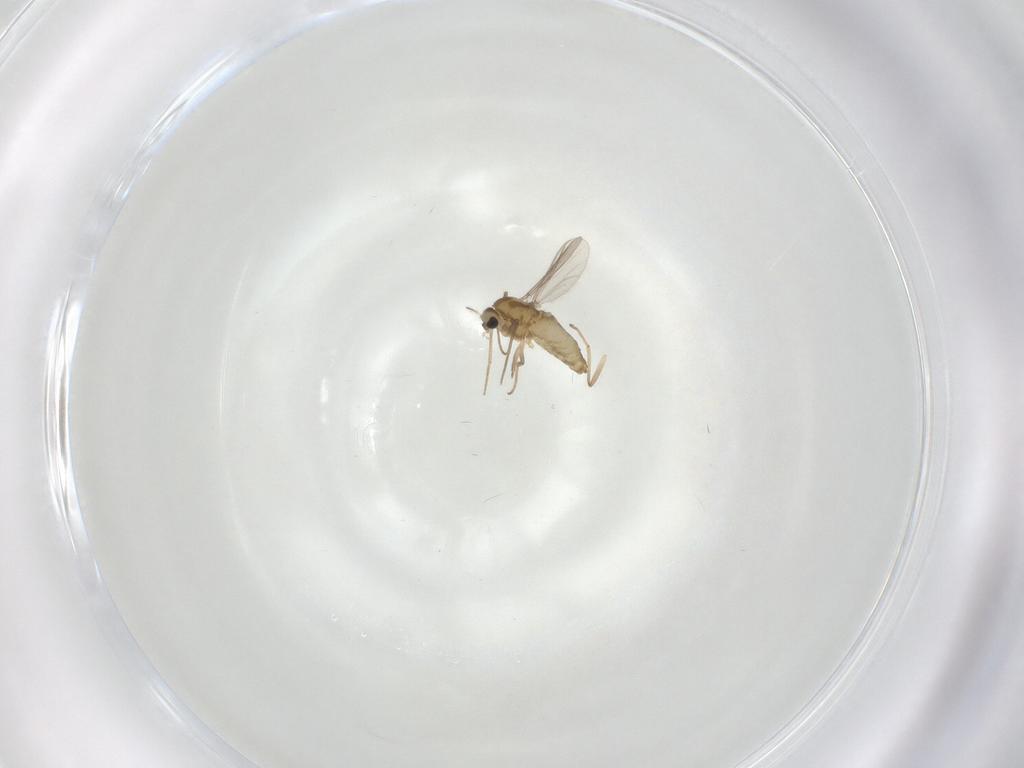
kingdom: Animalia
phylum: Arthropoda
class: Insecta
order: Diptera
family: Chironomidae
